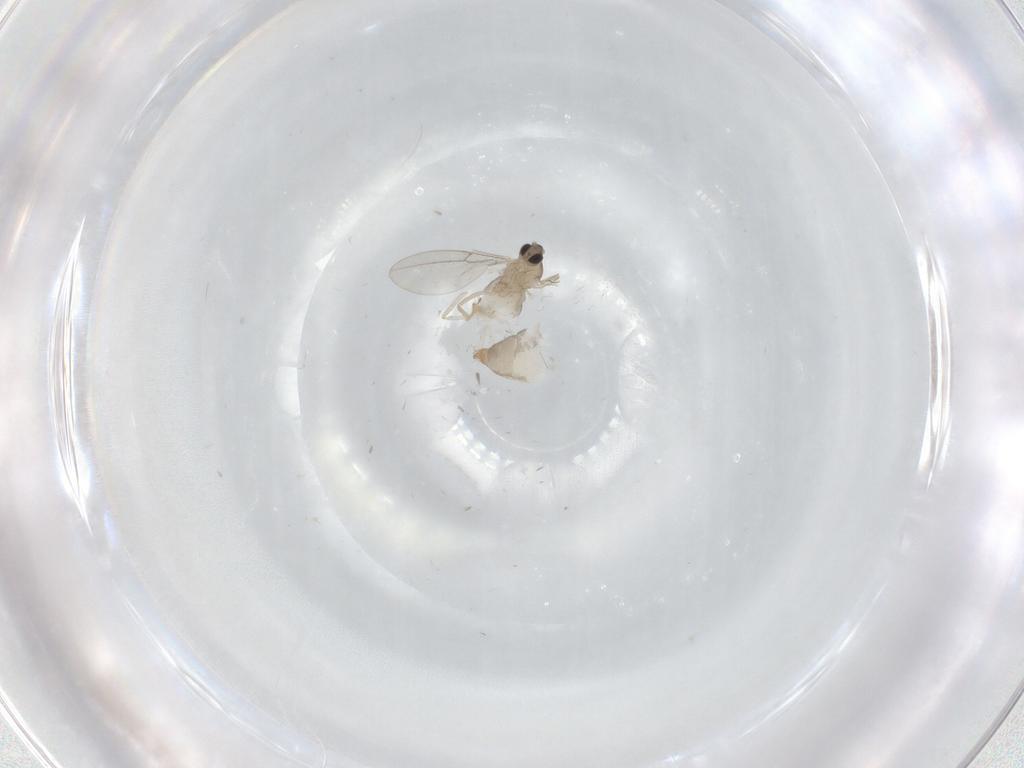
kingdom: Animalia
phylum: Arthropoda
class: Insecta
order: Diptera
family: Cecidomyiidae
